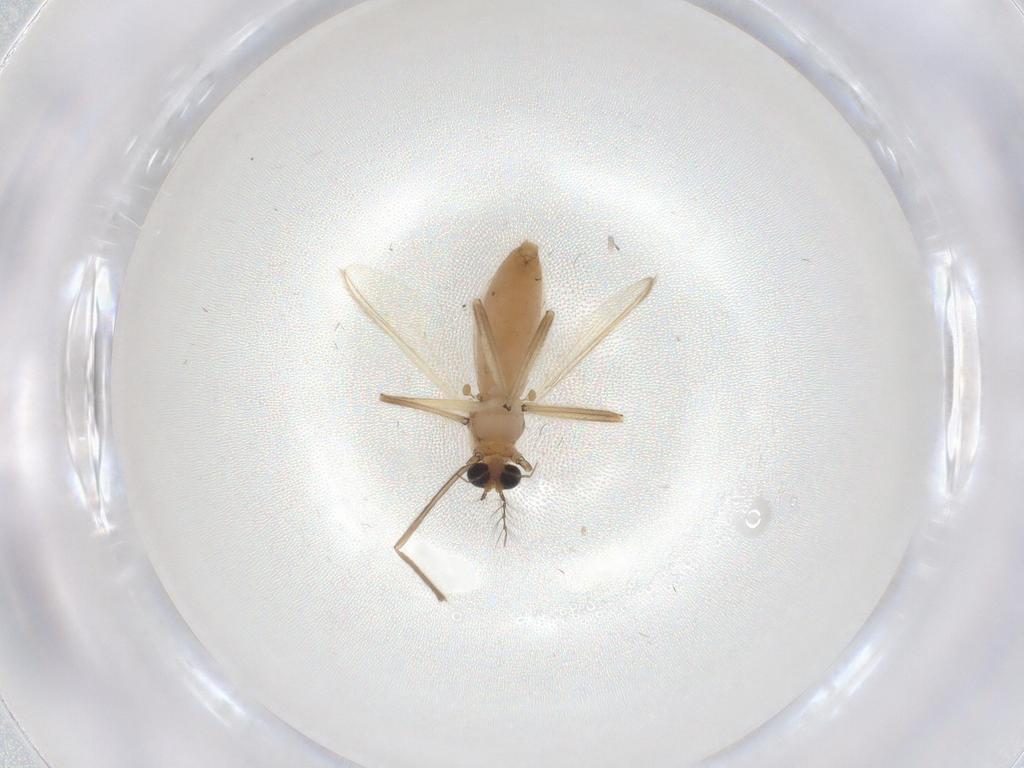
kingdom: Animalia
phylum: Arthropoda
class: Insecta
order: Diptera
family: Chironomidae
